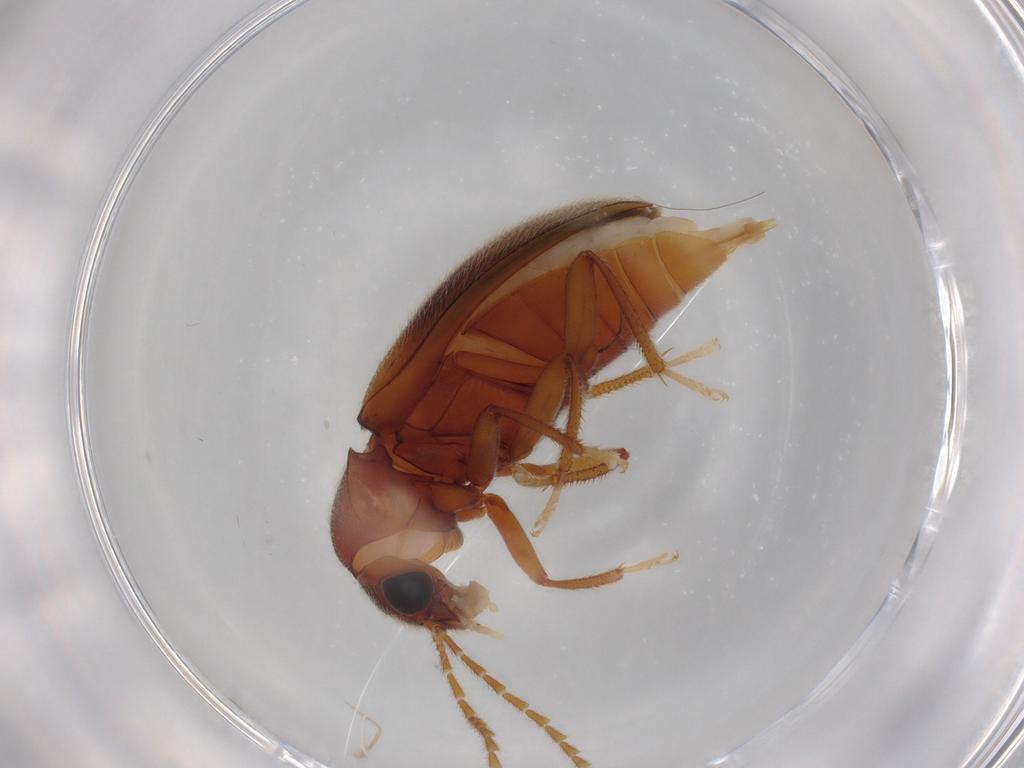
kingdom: Animalia
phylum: Arthropoda
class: Insecta
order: Coleoptera
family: Ptilodactylidae
